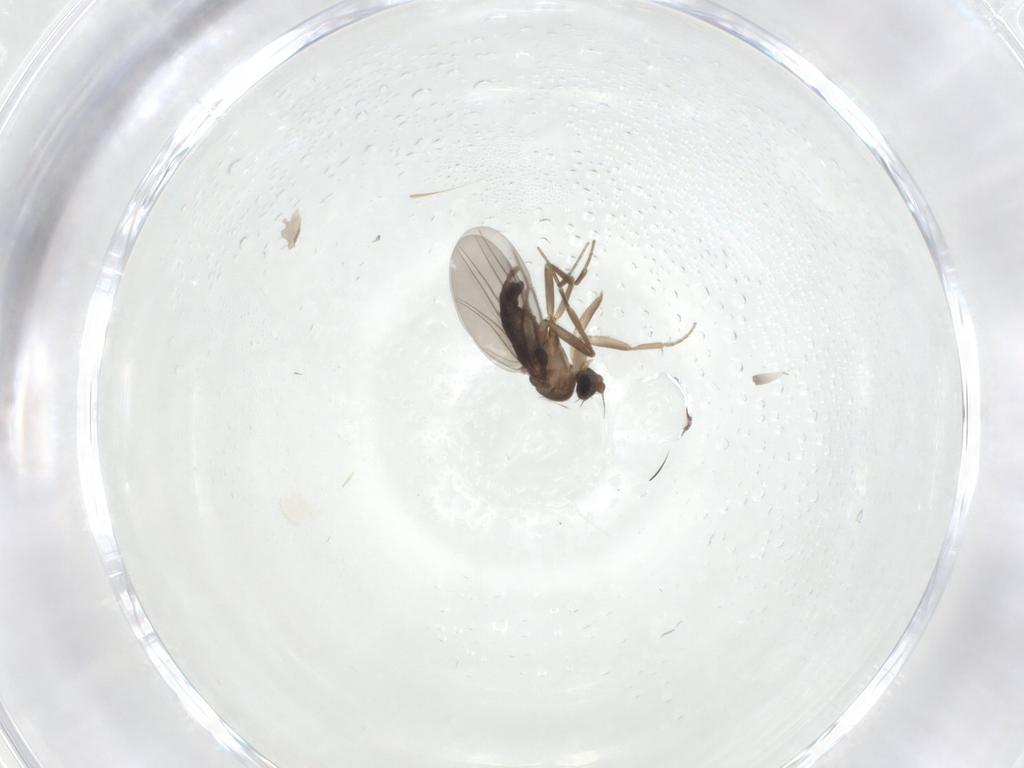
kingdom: Animalia
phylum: Arthropoda
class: Insecta
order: Diptera
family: Phoridae
